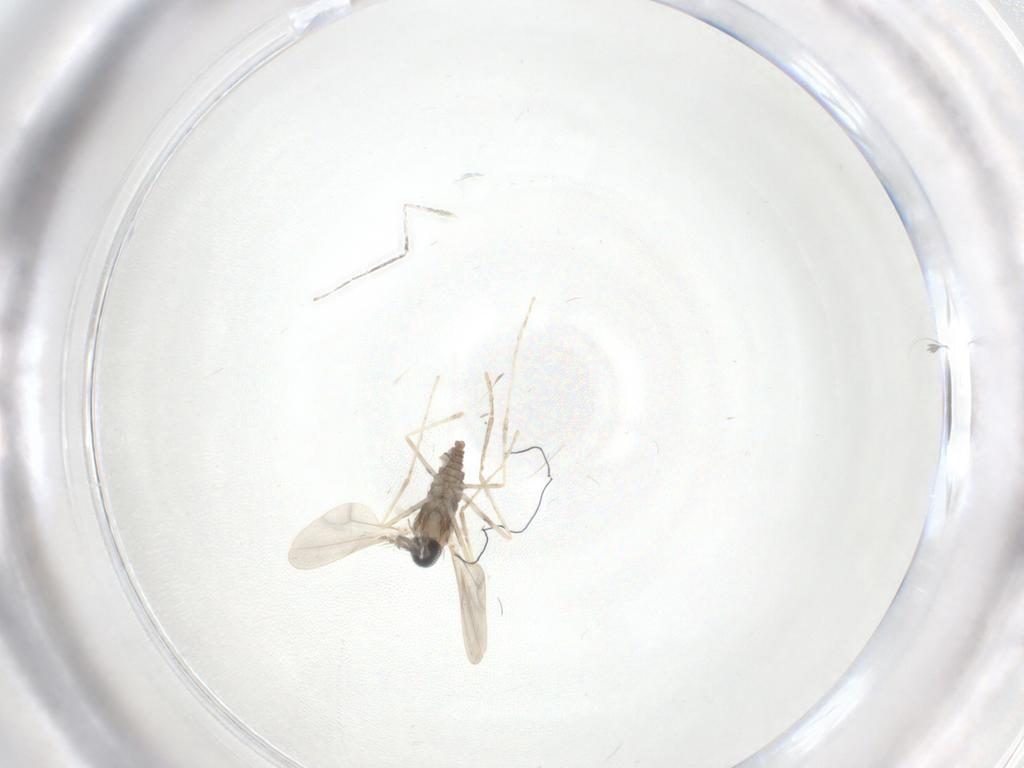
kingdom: Animalia
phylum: Arthropoda
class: Insecta
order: Diptera
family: Cecidomyiidae
